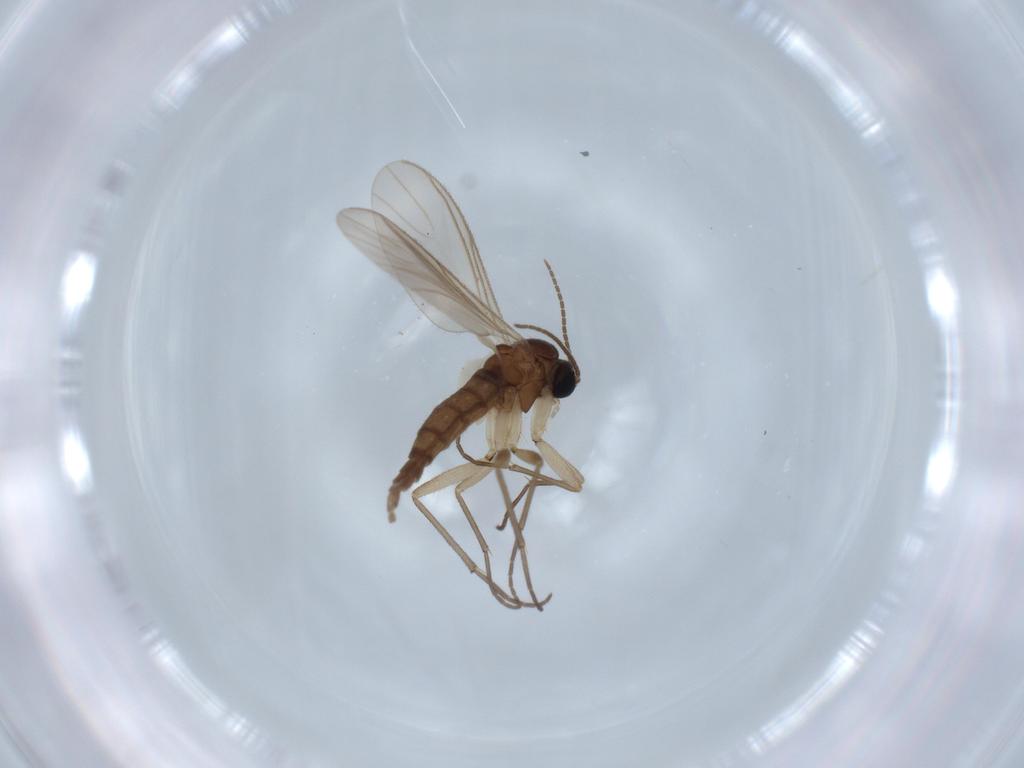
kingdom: Animalia
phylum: Arthropoda
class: Insecta
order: Diptera
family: Sciaridae
